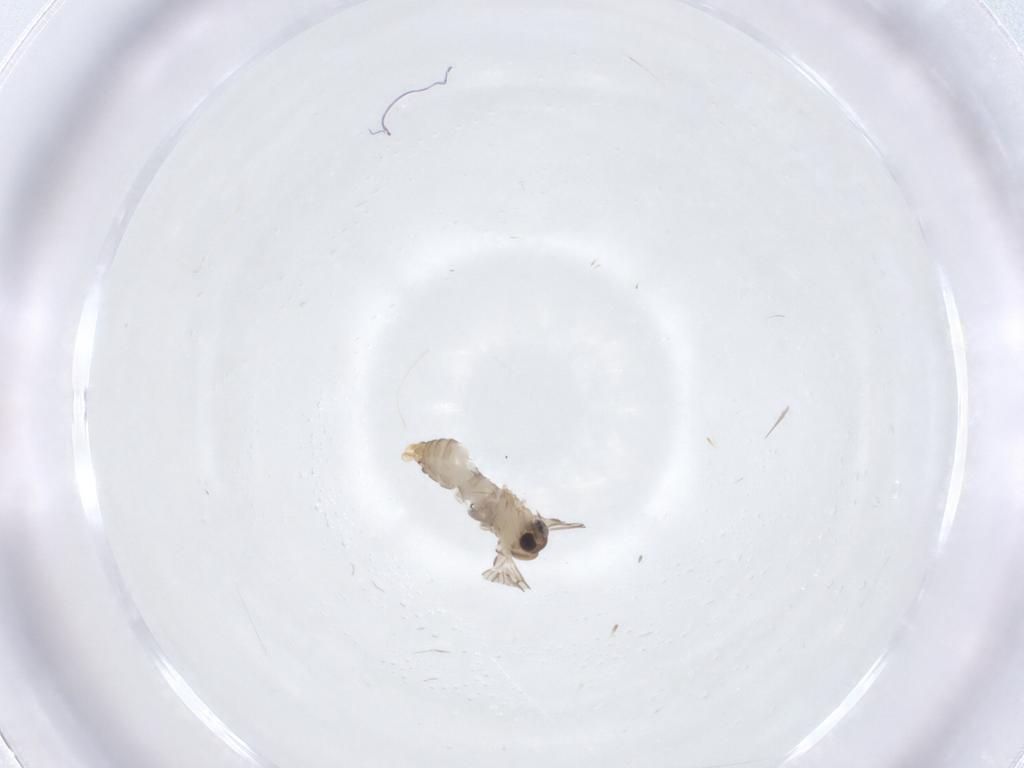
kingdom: Animalia
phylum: Arthropoda
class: Insecta
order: Diptera
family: Psychodidae
